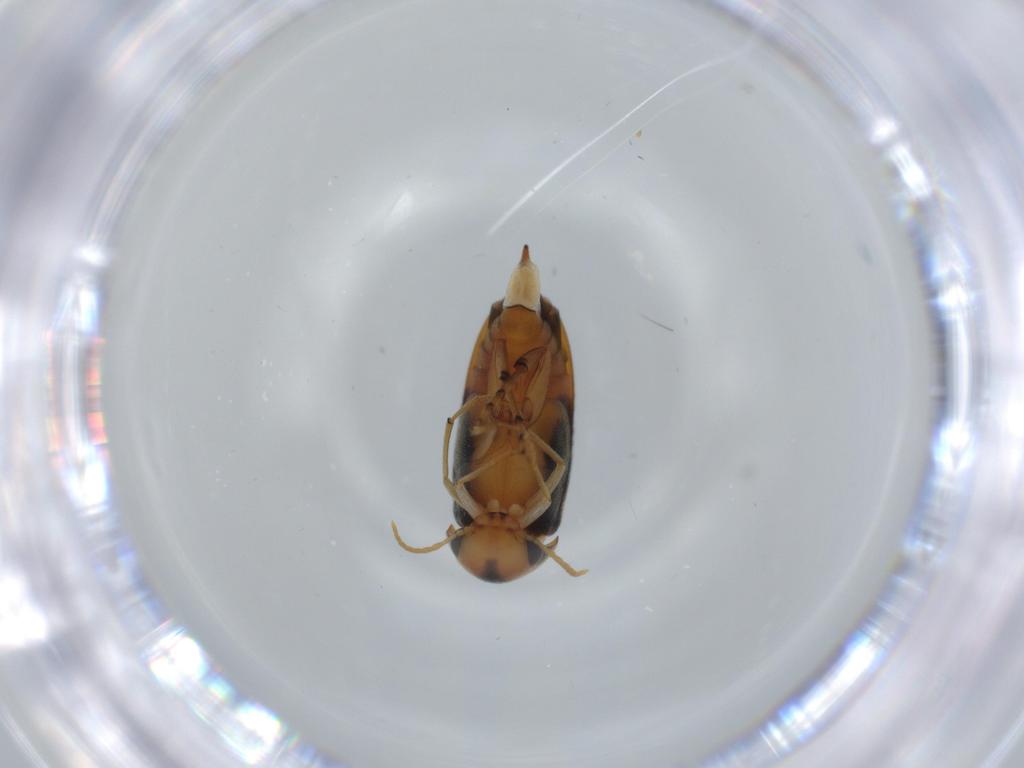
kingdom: Animalia
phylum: Arthropoda
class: Insecta
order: Coleoptera
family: Mordellidae
